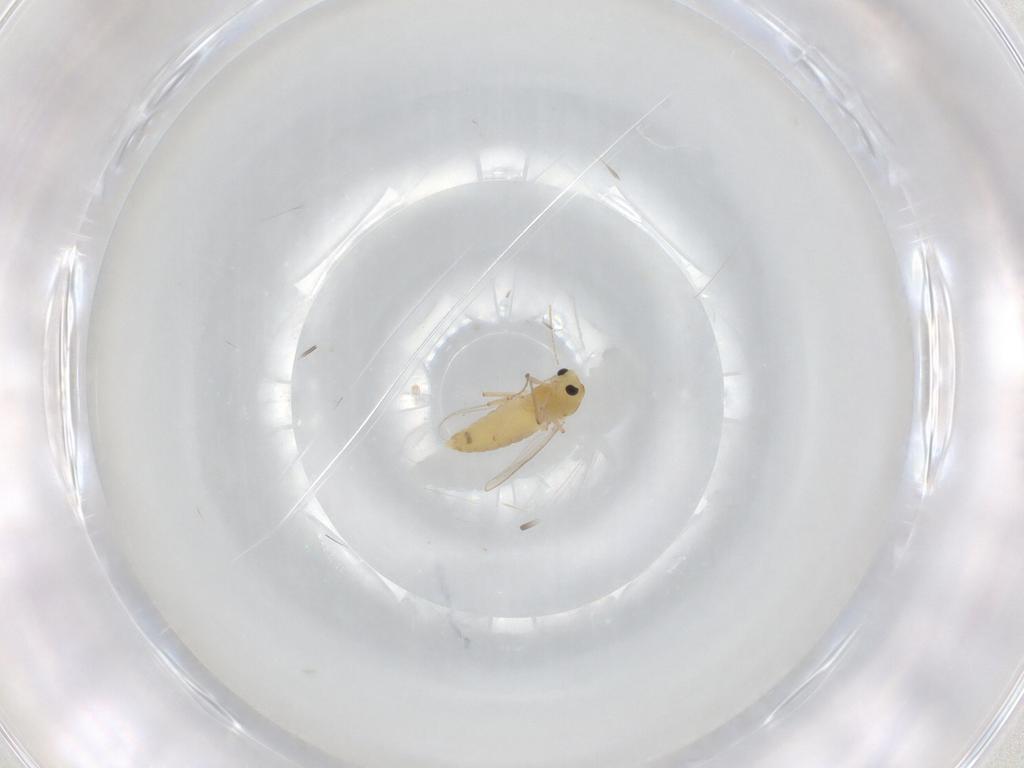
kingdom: Animalia
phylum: Arthropoda
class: Insecta
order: Diptera
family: Chironomidae
